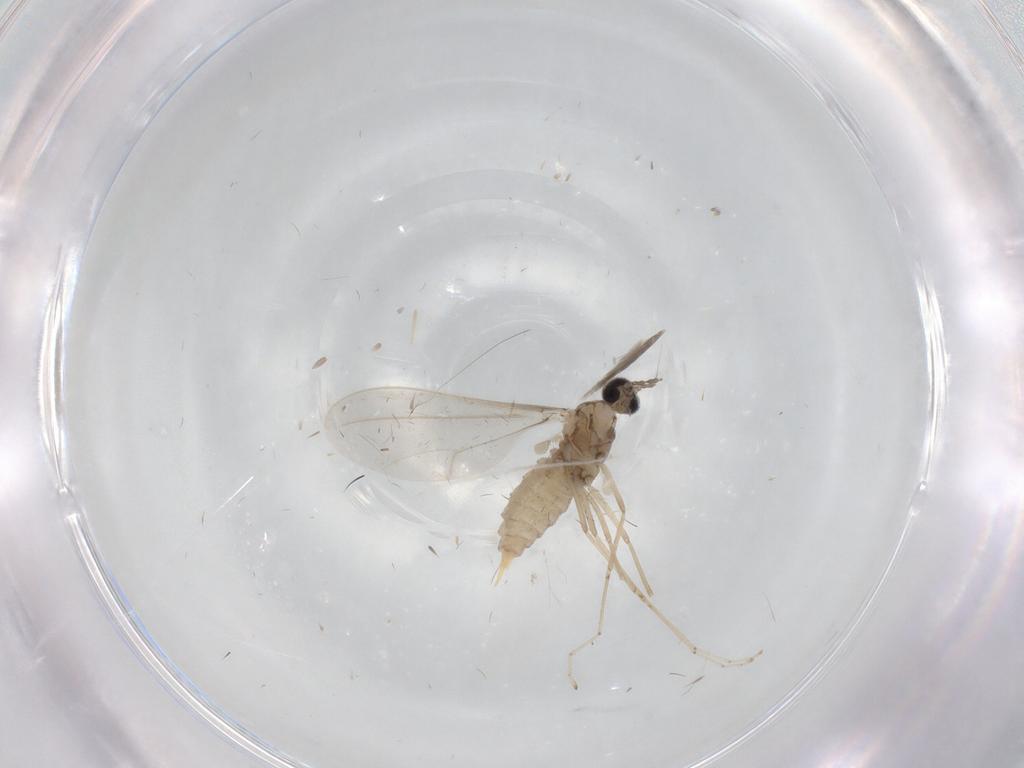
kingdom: Animalia
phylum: Arthropoda
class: Insecta
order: Diptera
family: Cecidomyiidae
